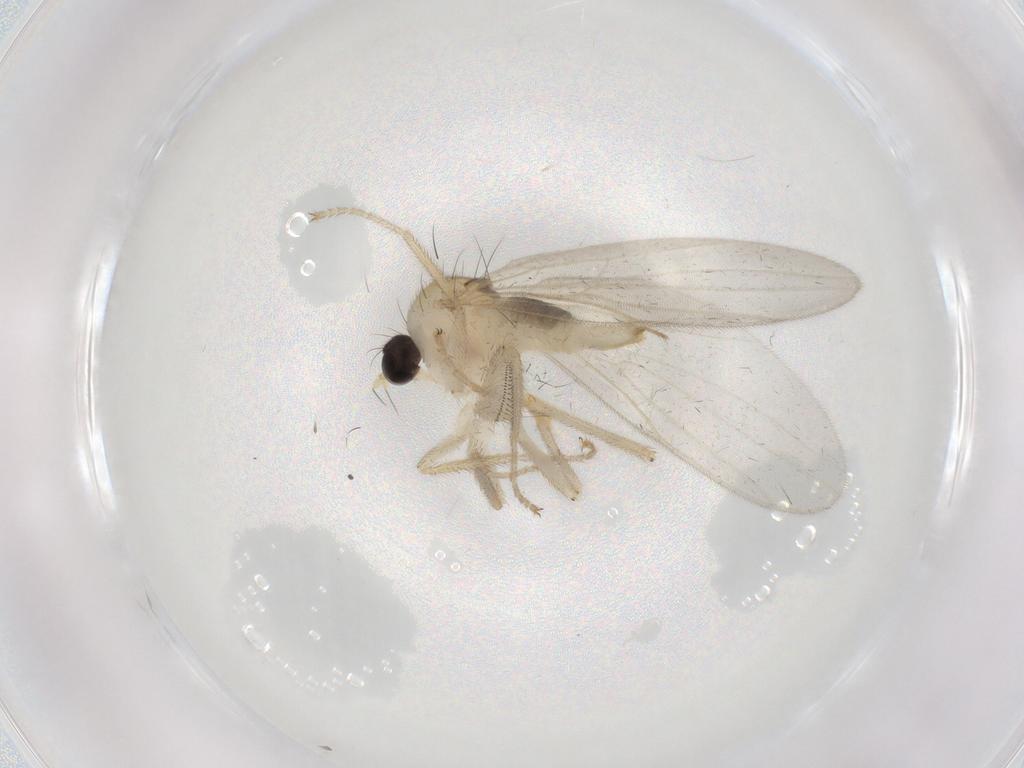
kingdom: Animalia
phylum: Arthropoda
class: Insecta
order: Diptera
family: Hybotidae
